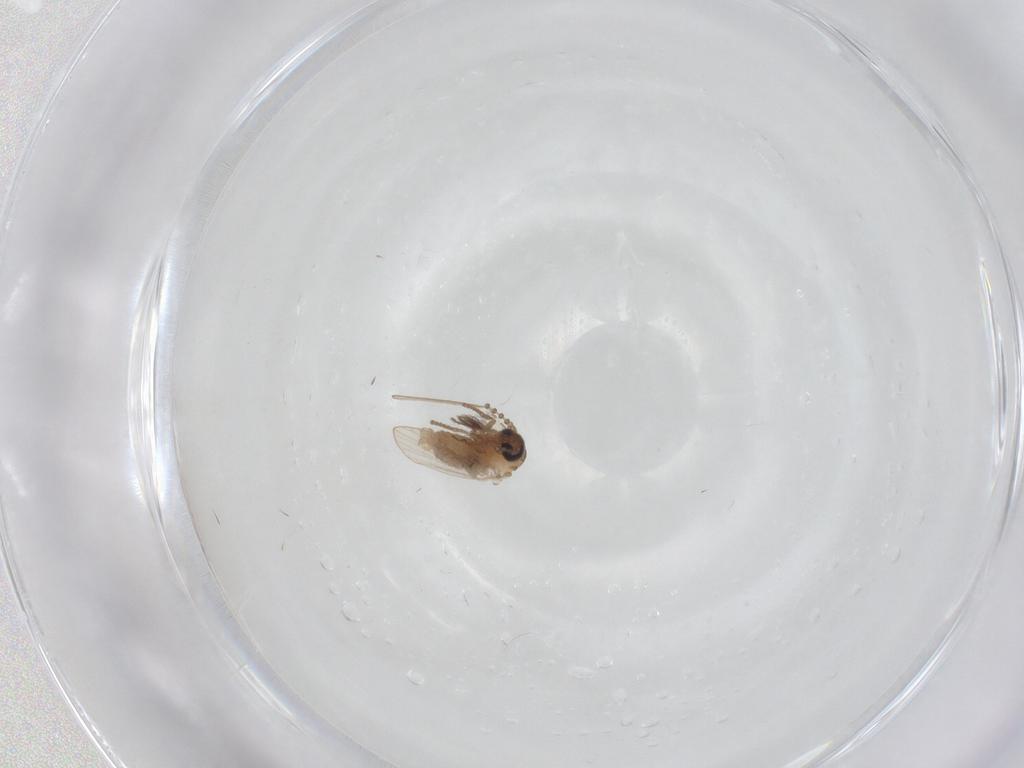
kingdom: Animalia
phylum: Arthropoda
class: Insecta
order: Diptera
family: Psychodidae
